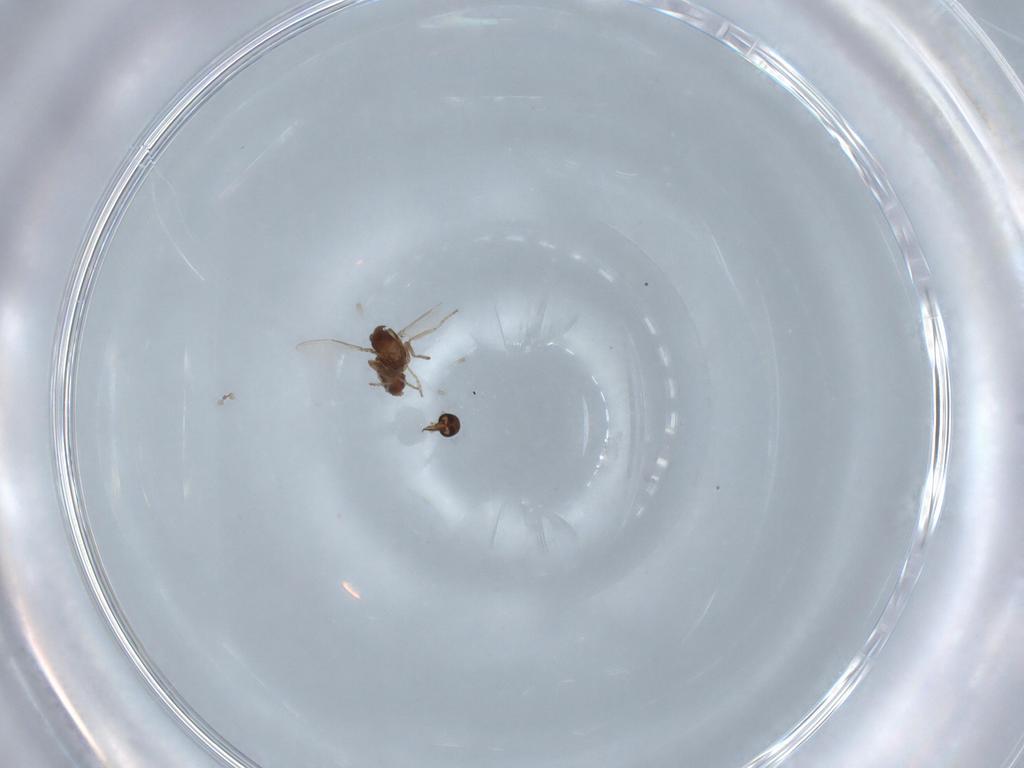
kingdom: Animalia
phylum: Arthropoda
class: Insecta
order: Diptera
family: Ceratopogonidae
